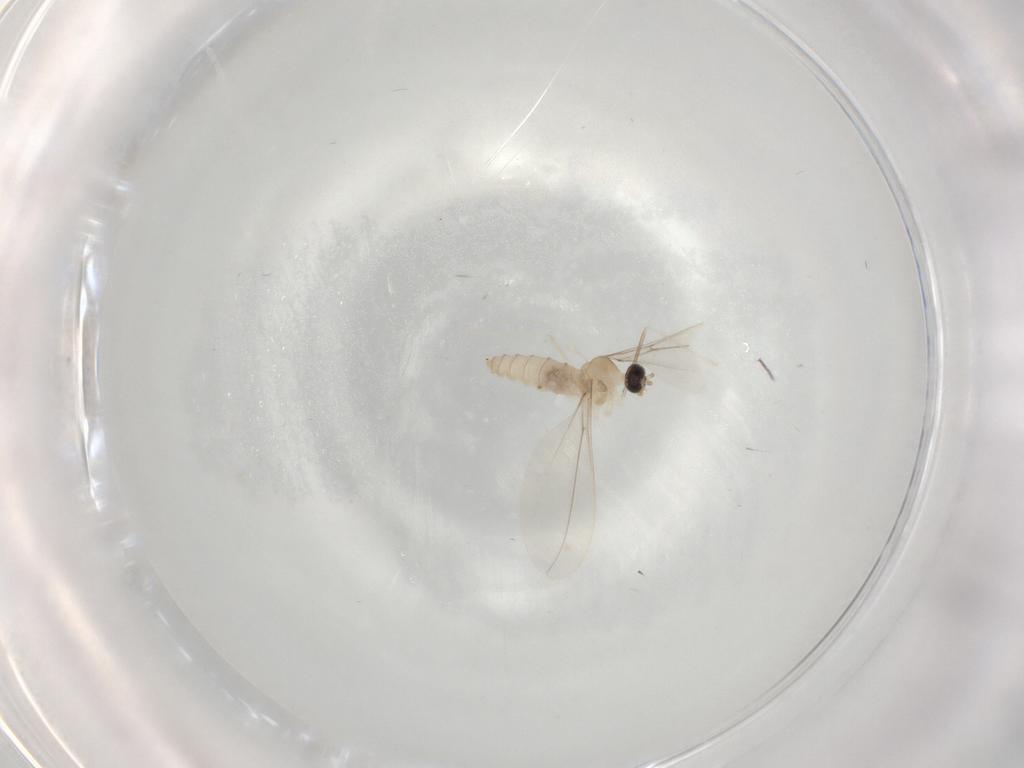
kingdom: Animalia
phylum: Arthropoda
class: Insecta
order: Diptera
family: Cecidomyiidae
